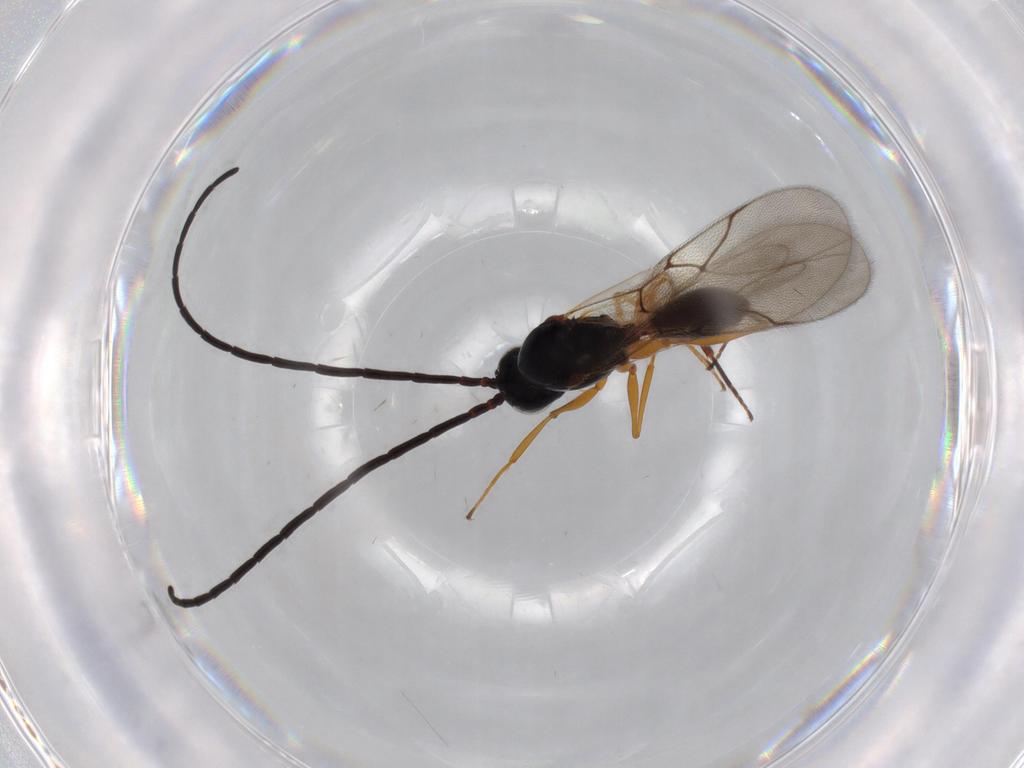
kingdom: Animalia
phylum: Arthropoda
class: Insecta
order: Hymenoptera
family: Figitidae
